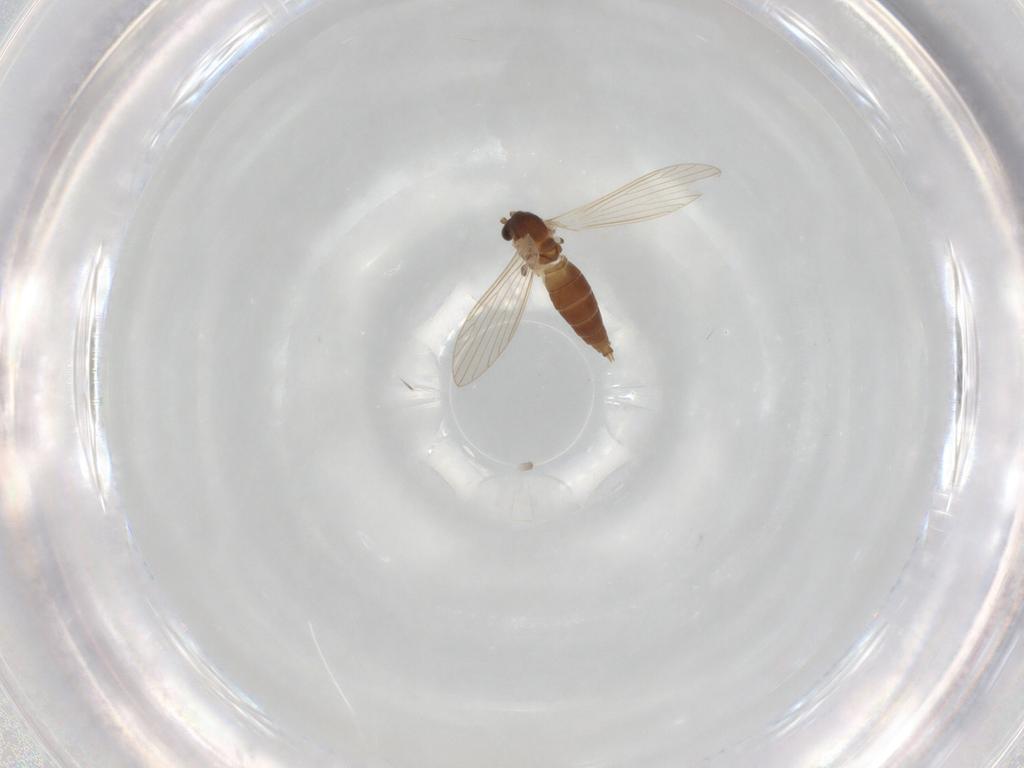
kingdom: Animalia
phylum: Arthropoda
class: Insecta
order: Diptera
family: Psychodidae
